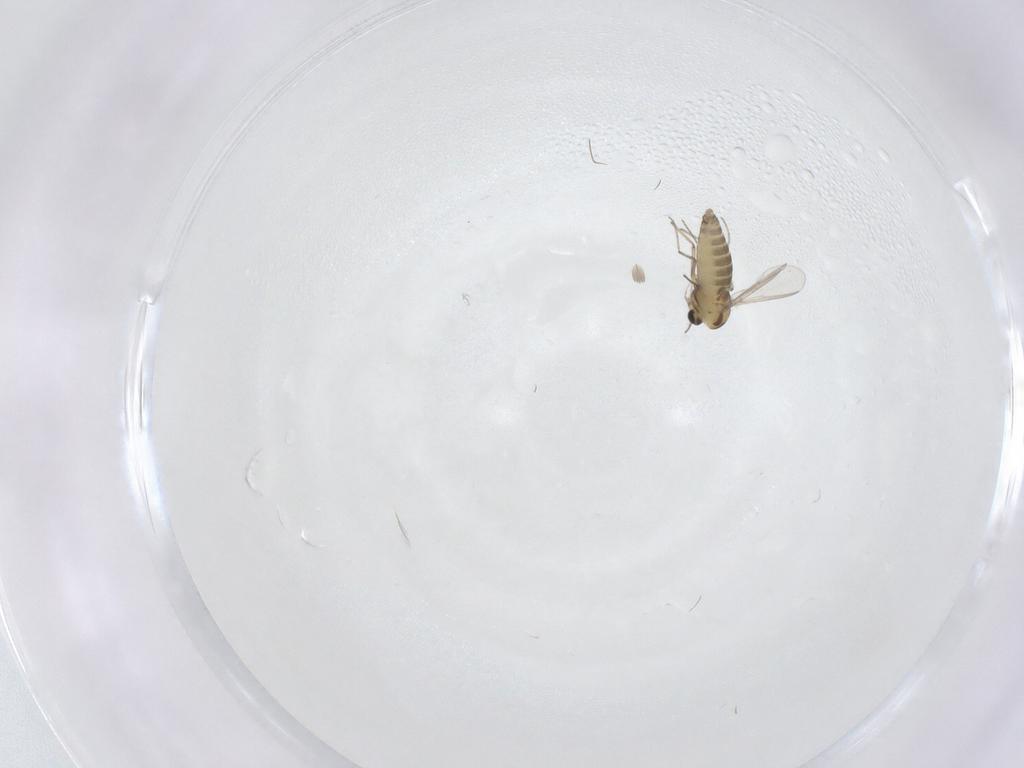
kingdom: Animalia
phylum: Arthropoda
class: Insecta
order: Diptera
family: Chironomidae
